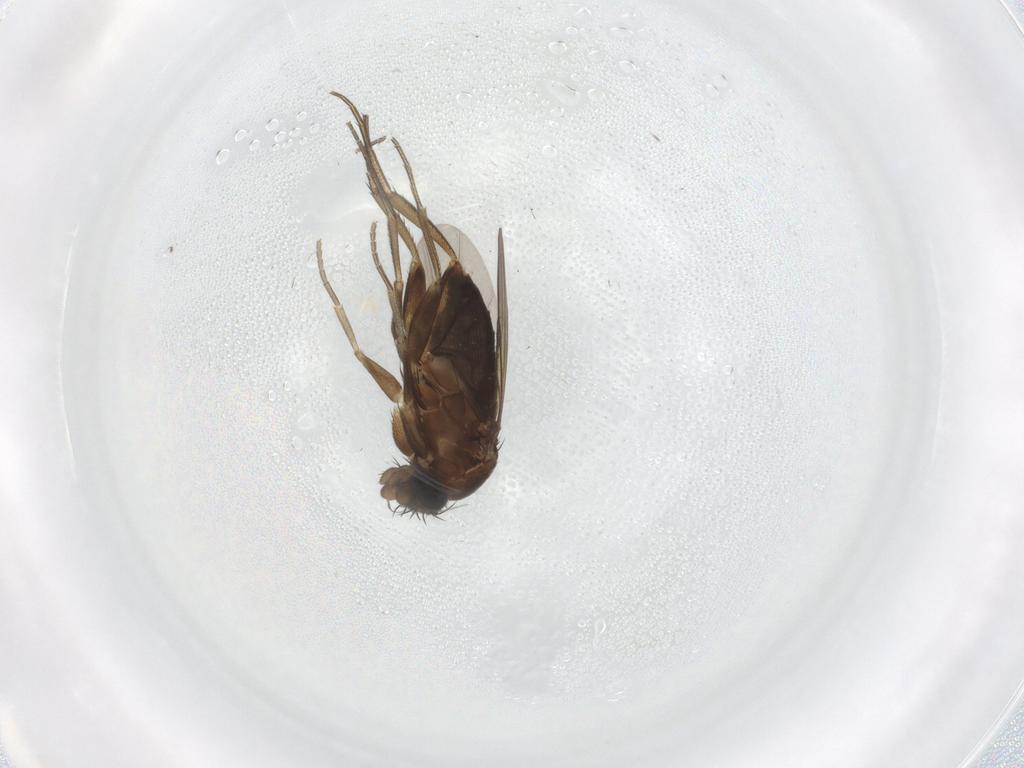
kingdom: Animalia
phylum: Arthropoda
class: Insecta
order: Diptera
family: Phoridae
